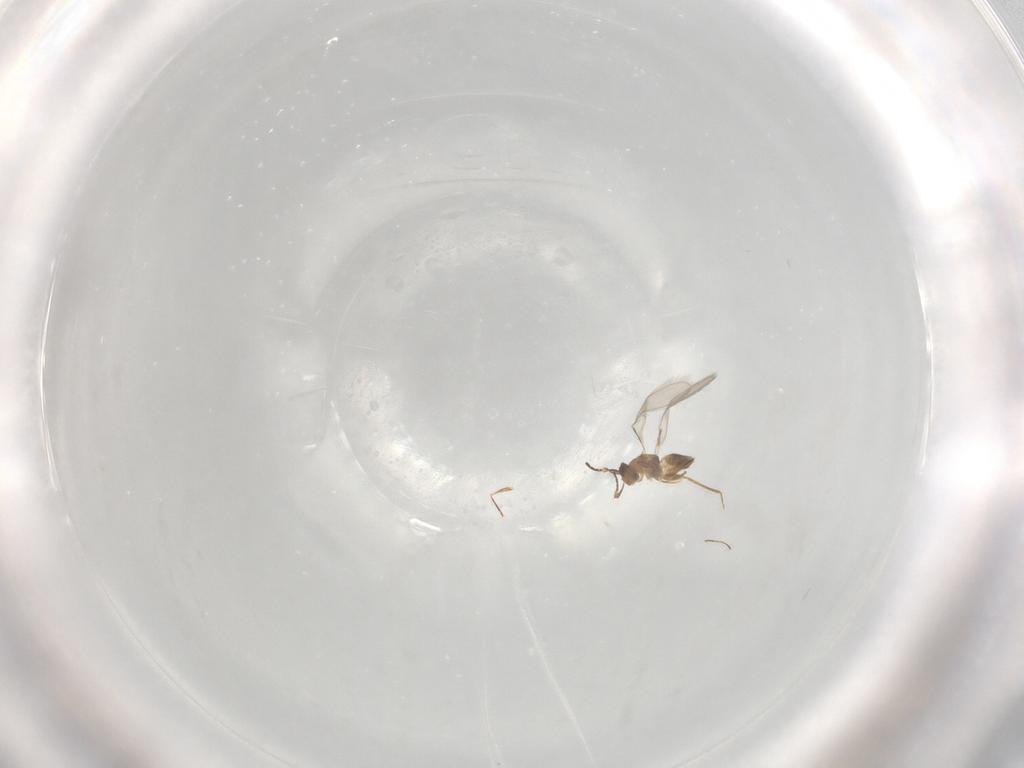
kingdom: Animalia
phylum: Arthropoda
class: Insecta
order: Hymenoptera
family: Mymaridae
